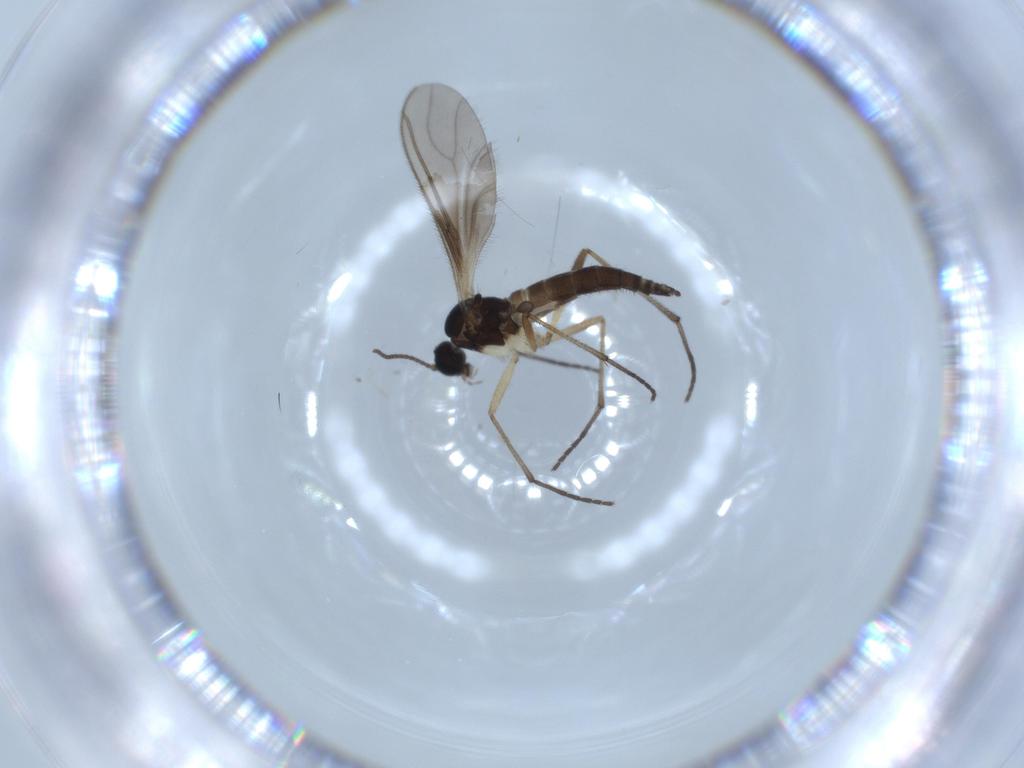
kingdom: Animalia
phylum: Arthropoda
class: Insecta
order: Diptera
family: Sciaridae
